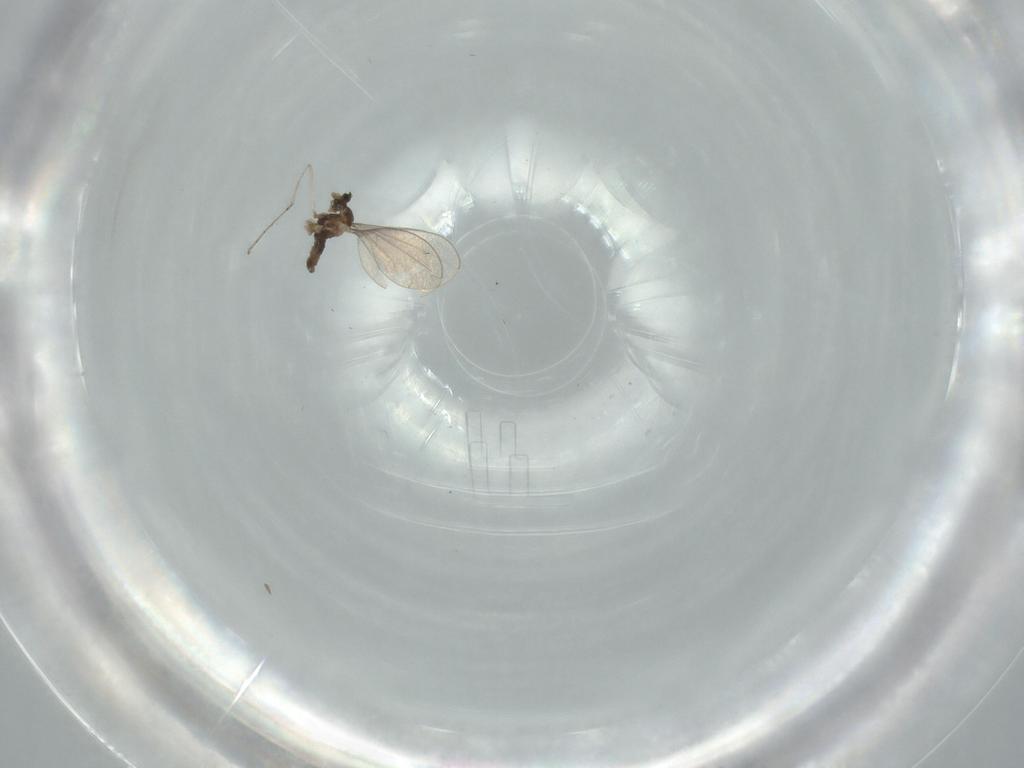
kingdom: Animalia
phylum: Arthropoda
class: Insecta
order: Diptera
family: Cecidomyiidae
